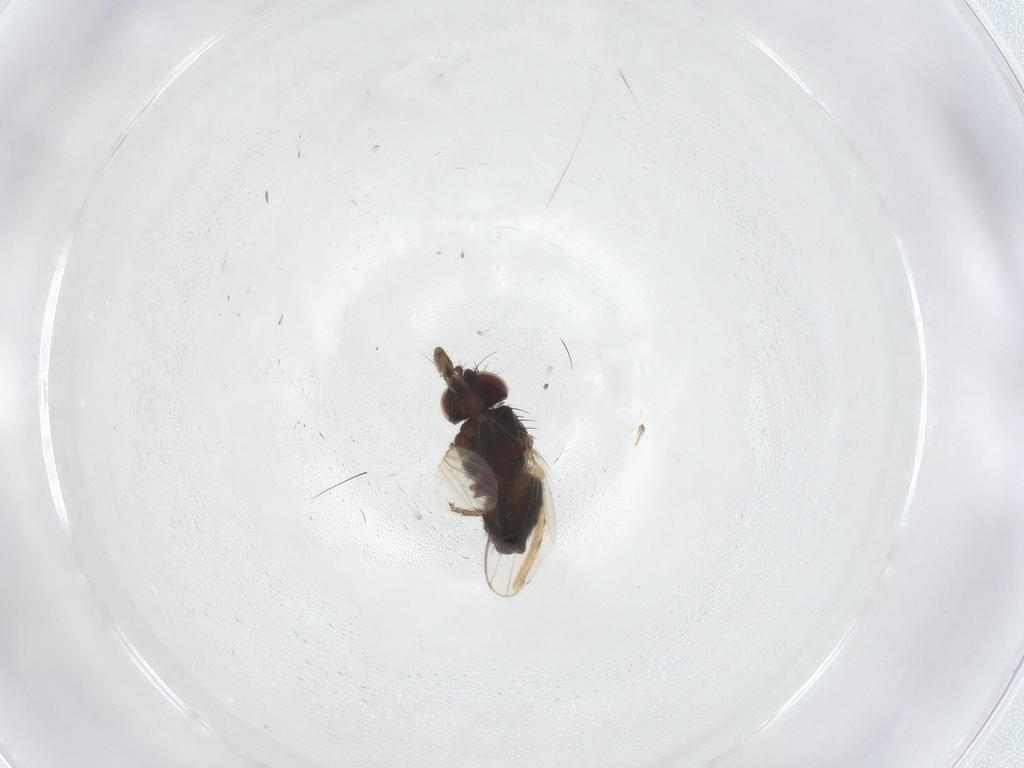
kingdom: Animalia
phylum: Arthropoda
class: Insecta
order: Diptera
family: Milichiidae
